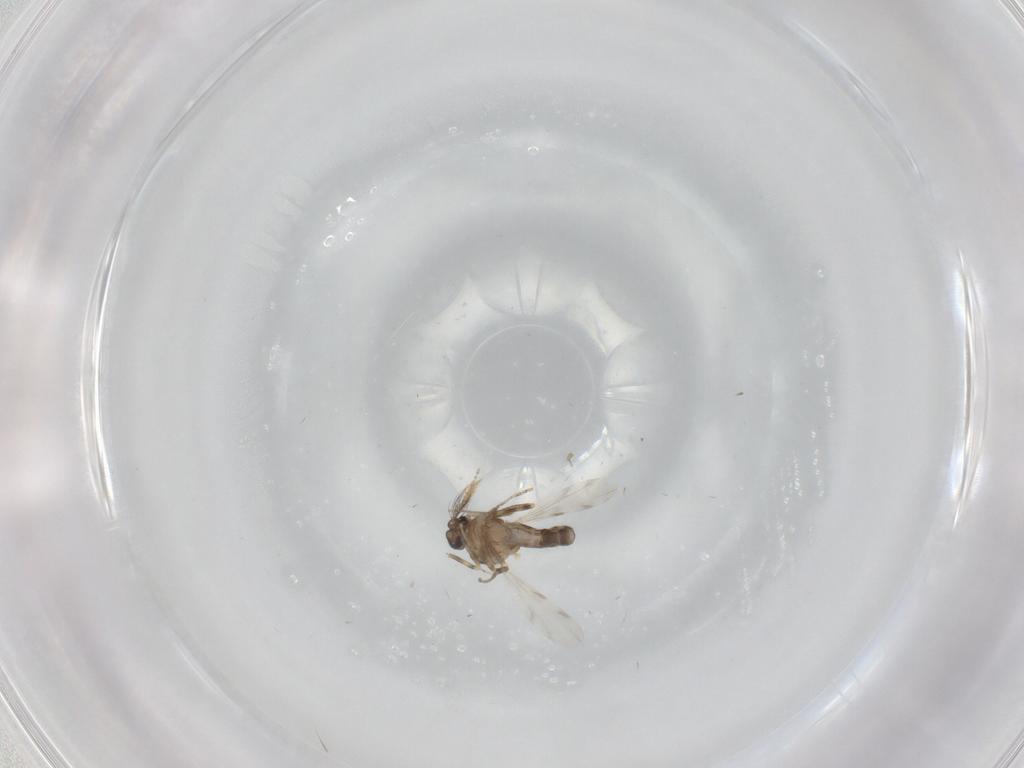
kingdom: Animalia
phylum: Arthropoda
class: Insecta
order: Diptera
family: Ceratopogonidae
